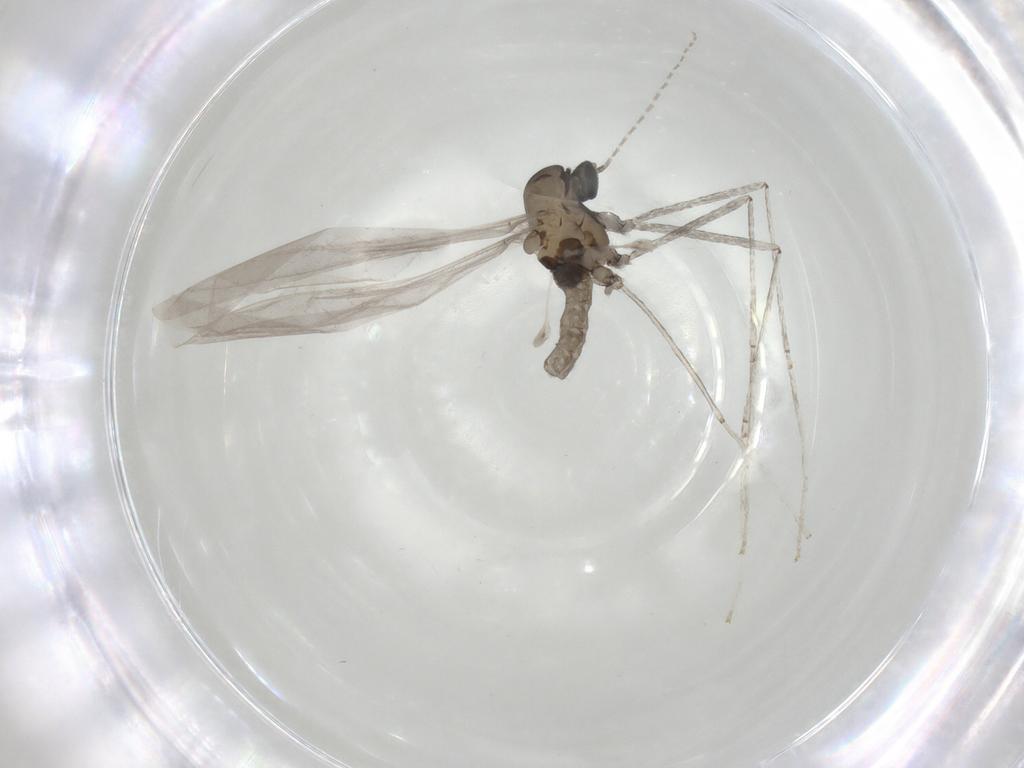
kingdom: Animalia
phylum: Arthropoda
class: Insecta
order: Diptera
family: Cecidomyiidae
